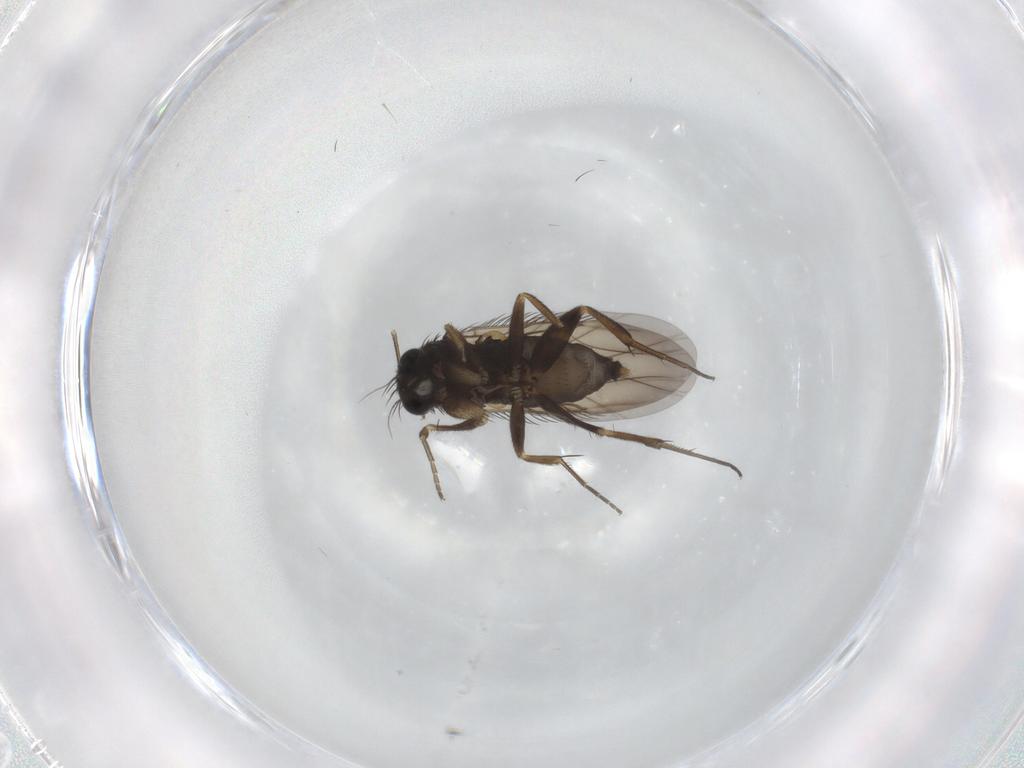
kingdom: Animalia
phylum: Arthropoda
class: Insecta
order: Diptera
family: Phoridae
